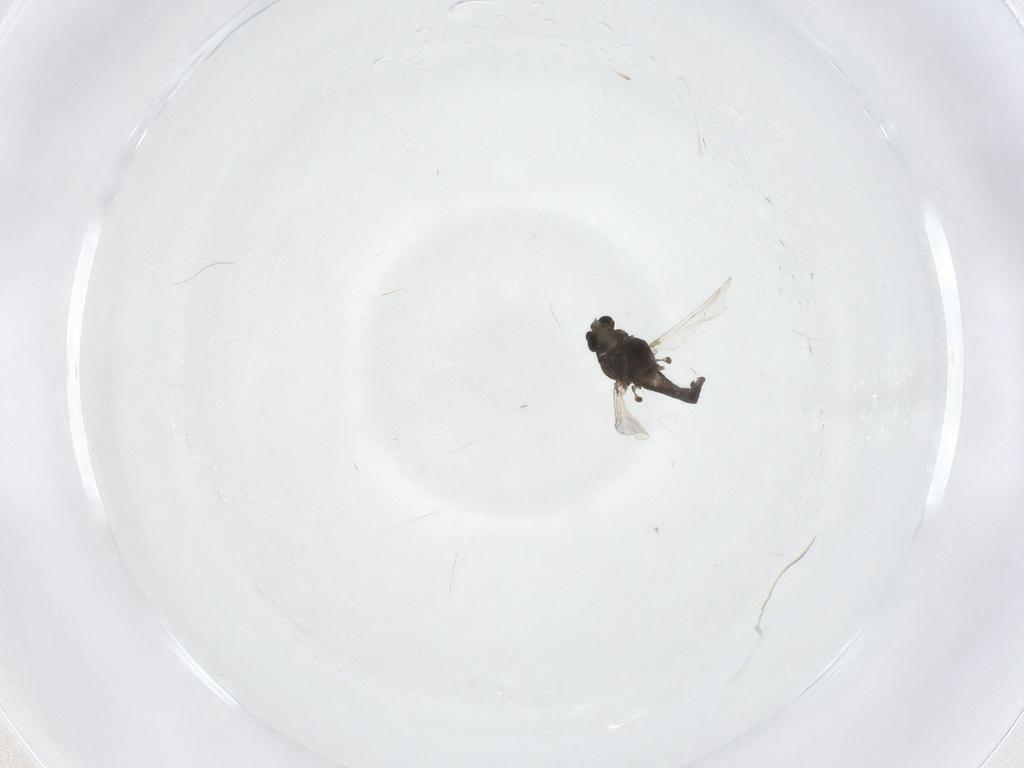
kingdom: Animalia
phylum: Arthropoda
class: Insecta
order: Diptera
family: Chironomidae
